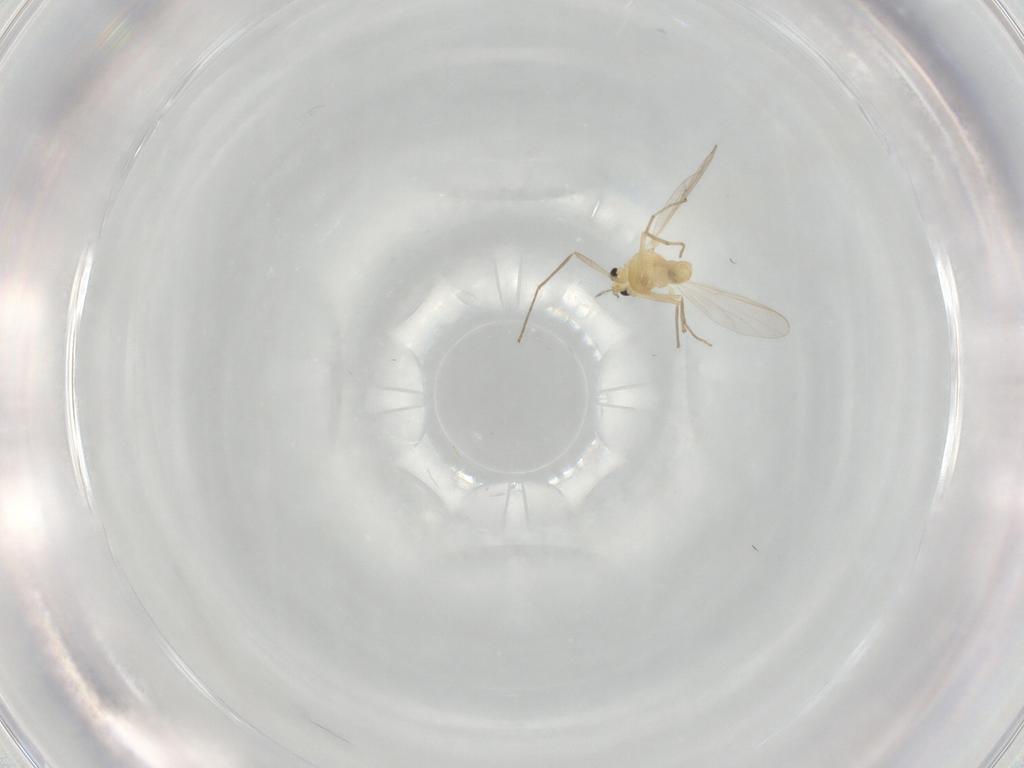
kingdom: Animalia
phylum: Arthropoda
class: Insecta
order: Diptera
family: Chironomidae
